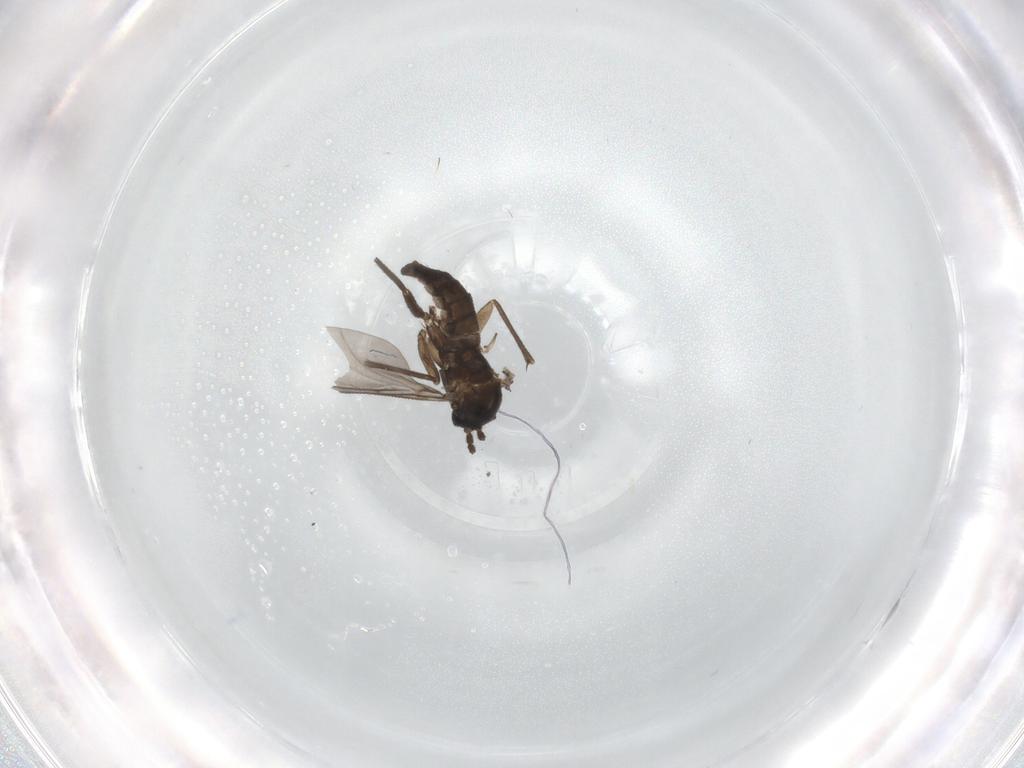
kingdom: Animalia
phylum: Arthropoda
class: Insecta
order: Diptera
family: Sciaridae
